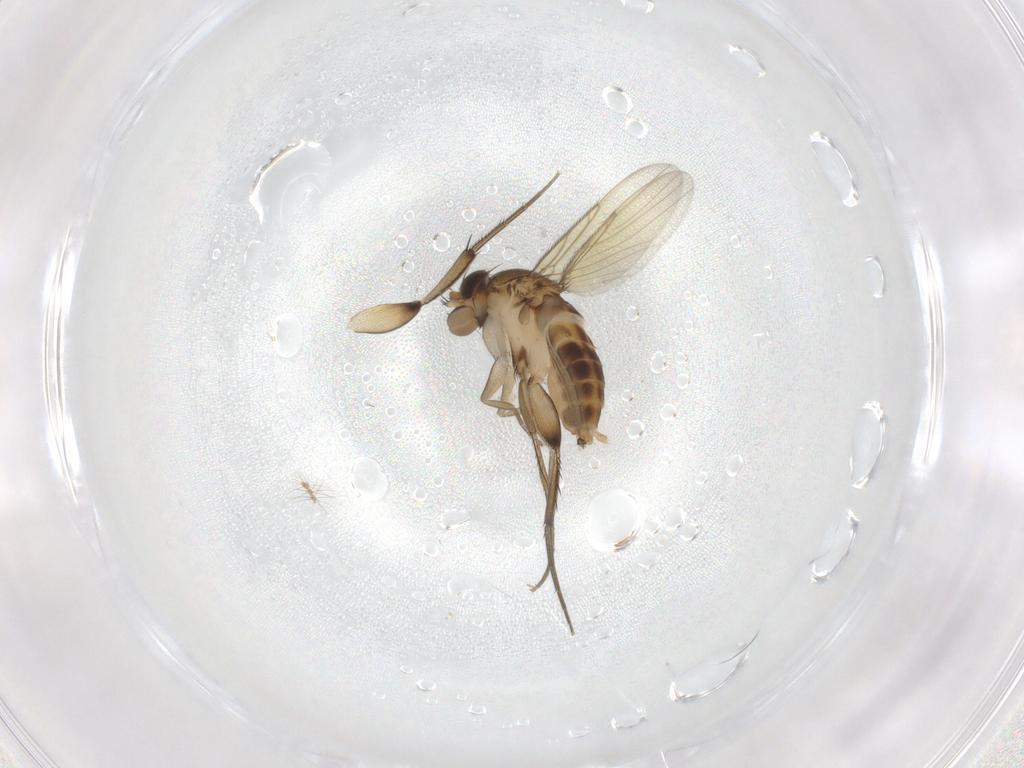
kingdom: Animalia
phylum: Arthropoda
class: Insecta
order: Diptera
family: Phoridae
